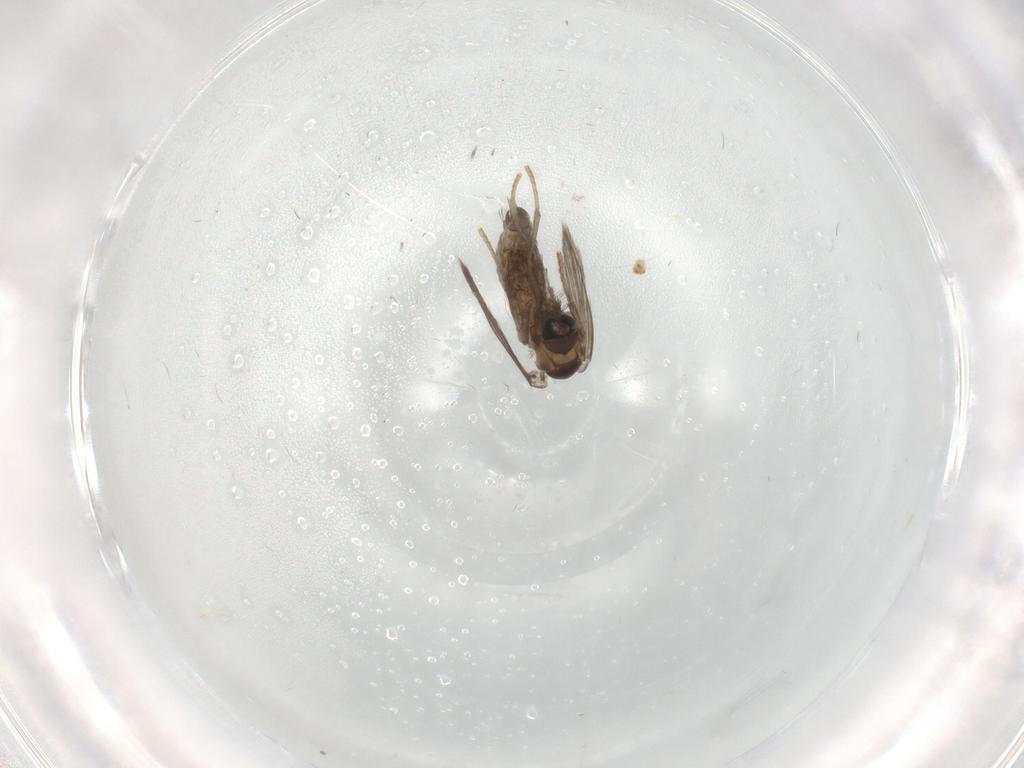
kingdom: Animalia
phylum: Arthropoda
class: Insecta
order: Diptera
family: Psychodidae
